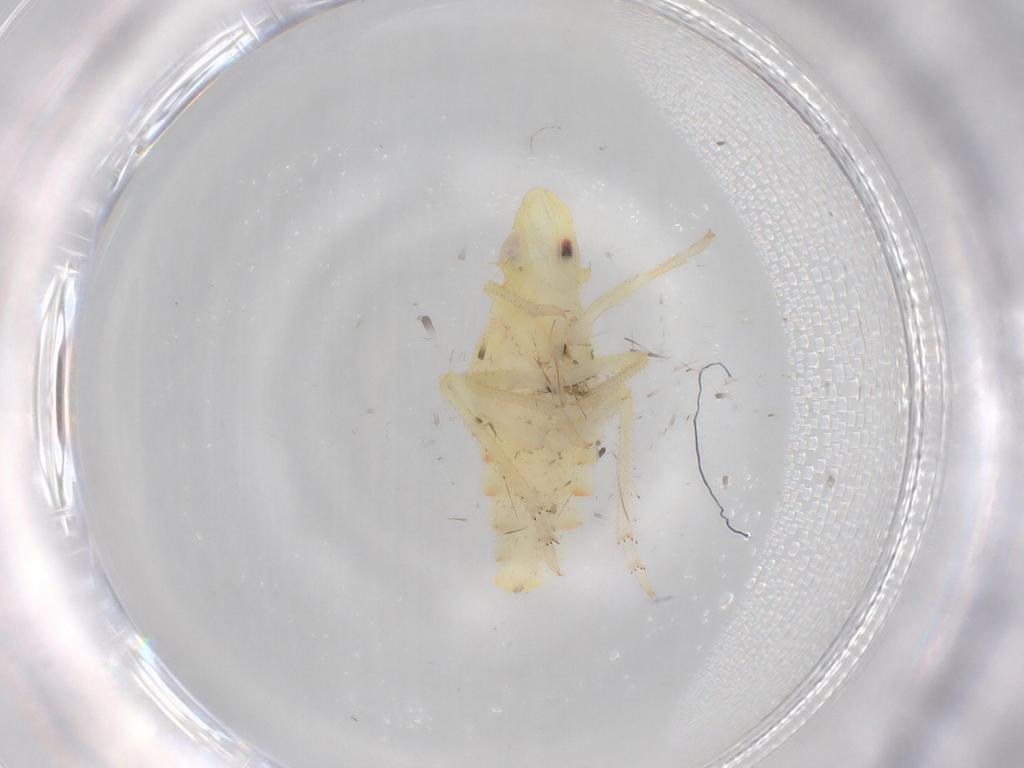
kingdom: Animalia
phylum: Arthropoda
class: Insecta
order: Hemiptera
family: Tropiduchidae
